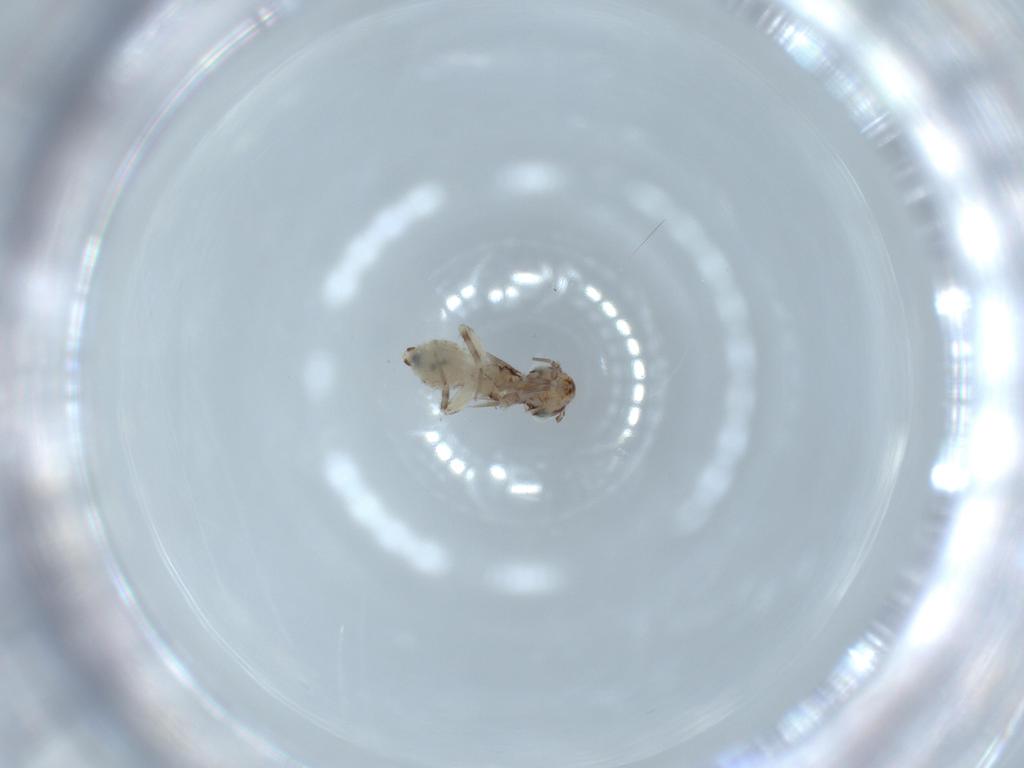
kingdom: Animalia
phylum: Arthropoda
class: Insecta
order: Psocodea
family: Lepidopsocidae
